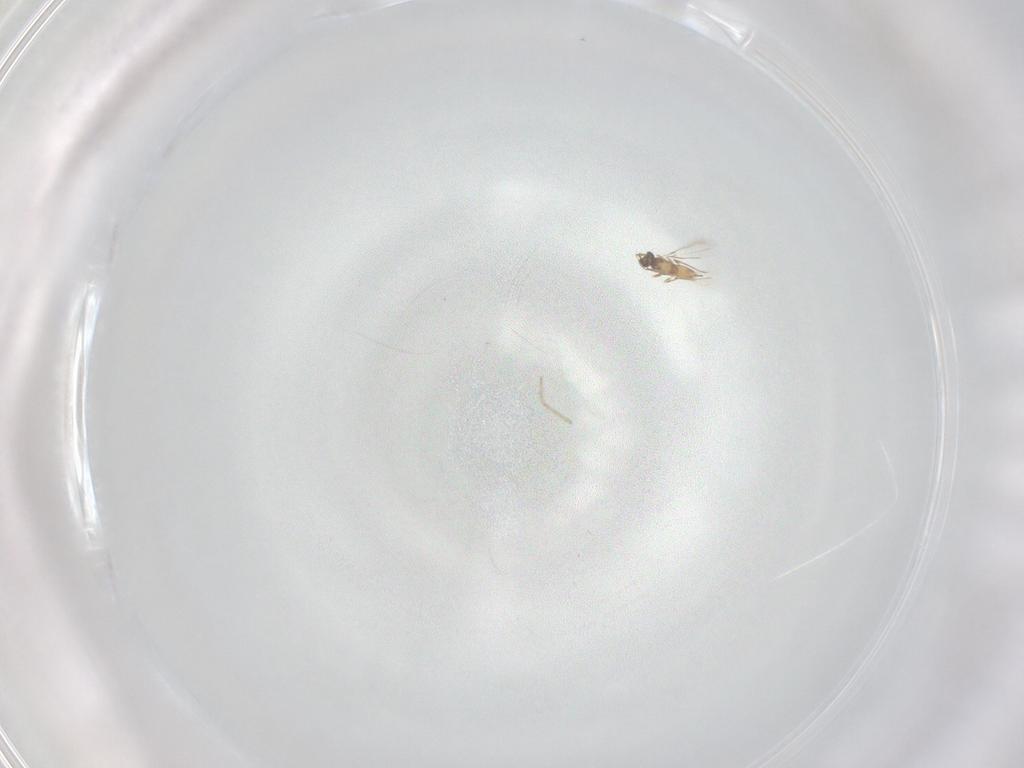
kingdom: Animalia
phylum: Arthropoda
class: Insecta
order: Hymenoptera
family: Mymaridae
